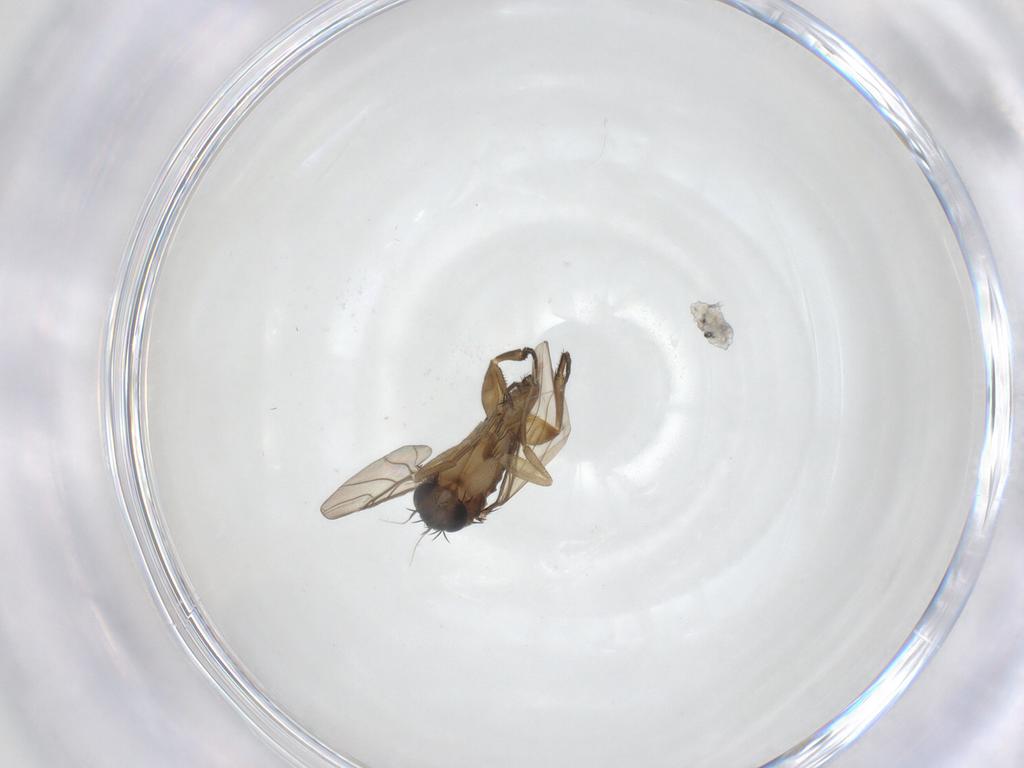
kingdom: Animalia
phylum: Arthropoda
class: Insecta
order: Diptera
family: Phoridae
